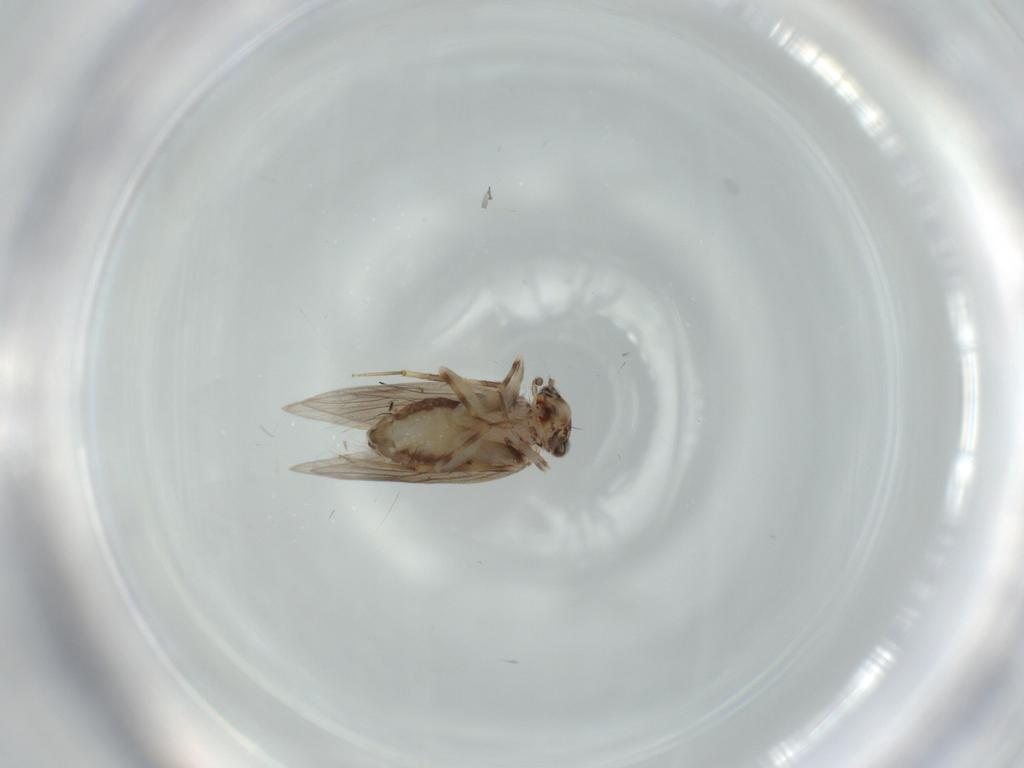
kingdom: Animalia
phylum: Arthropoda
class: Insecta
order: Psocodea
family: Lepidopsocidae
